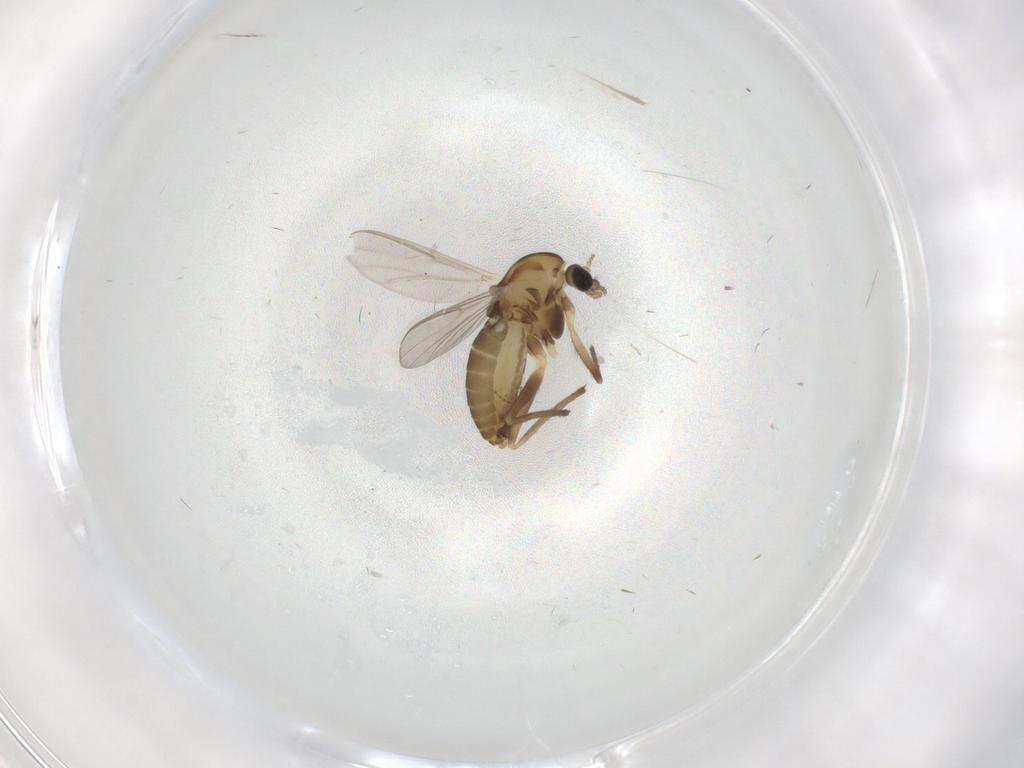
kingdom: Animalia
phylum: Arthropoda
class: Insecta
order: Diptera
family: Chironomidae
